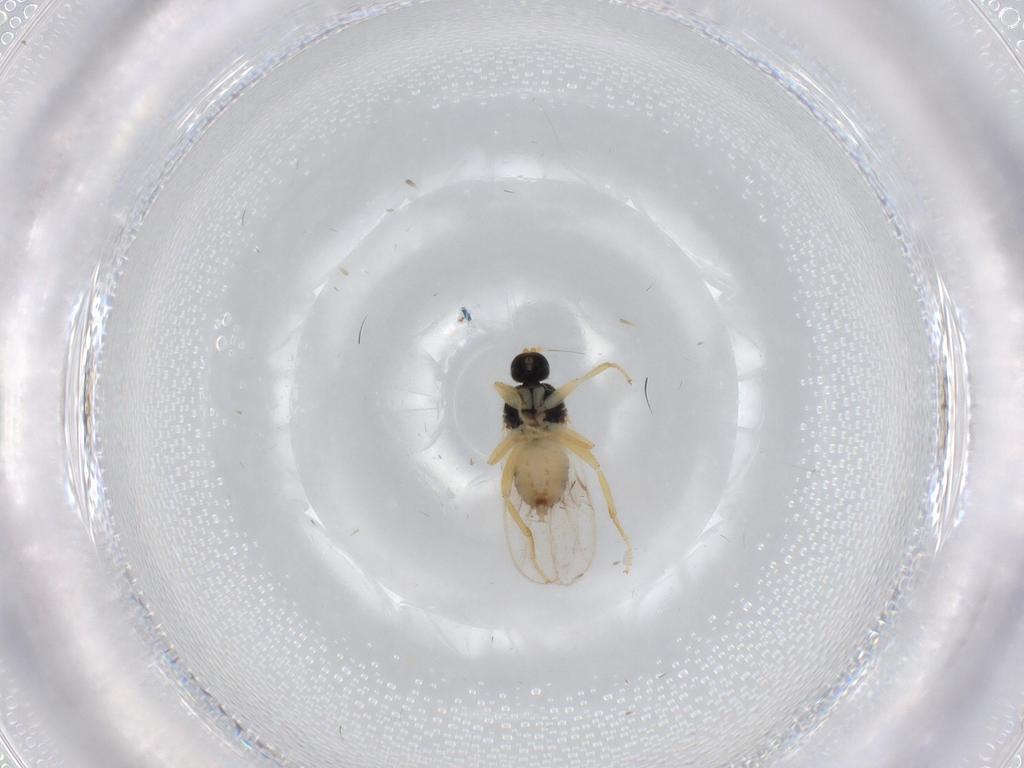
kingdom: Animalia
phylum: Arthropoda
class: Insecta
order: Diptera
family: Hybotidae
